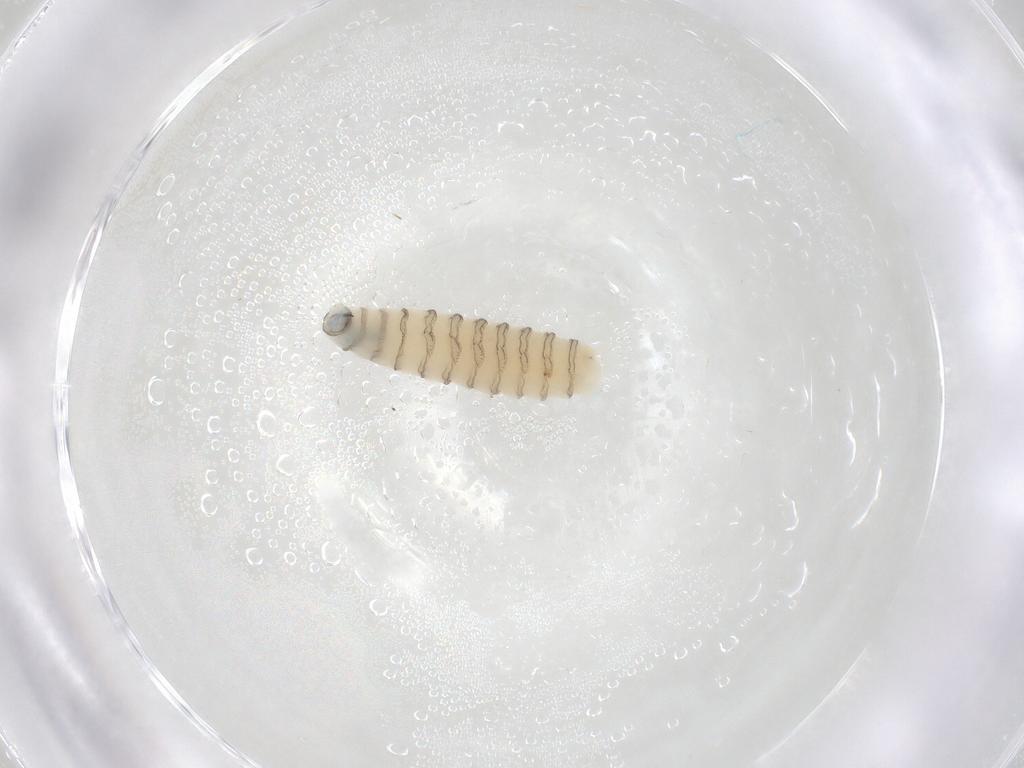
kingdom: Animalia
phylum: Arthropoda
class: Insecta
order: Diptera
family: Sarcophagidae
